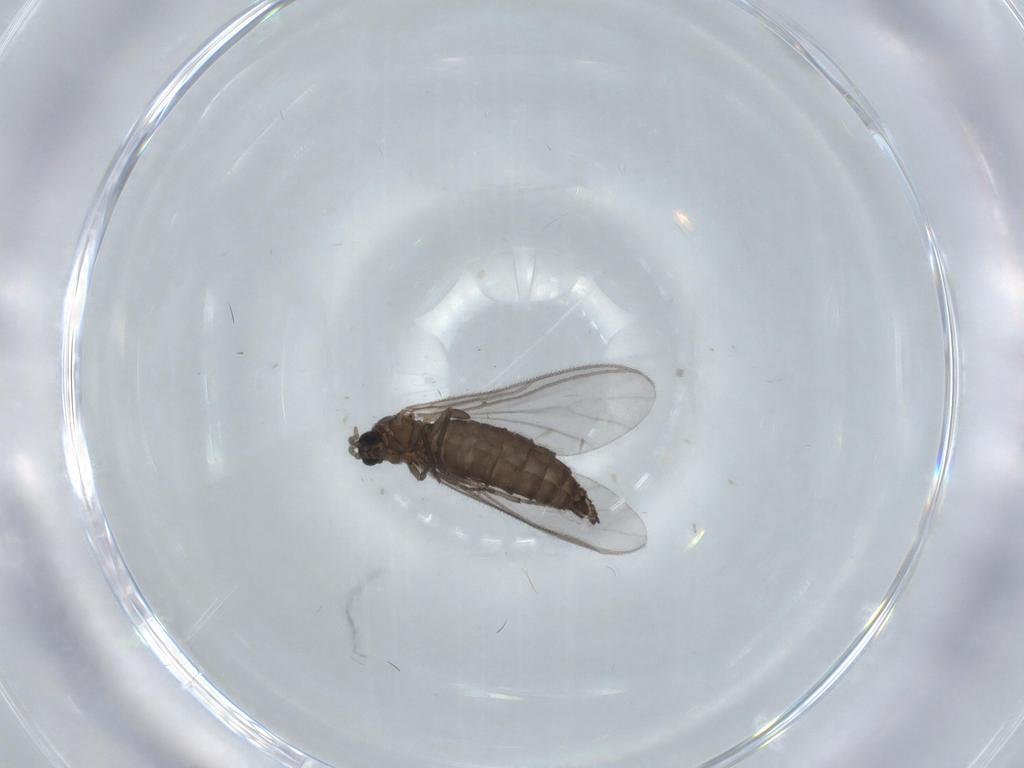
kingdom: Animalia
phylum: Arthropoda
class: Insecta
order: Diptera
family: Sciaridae
